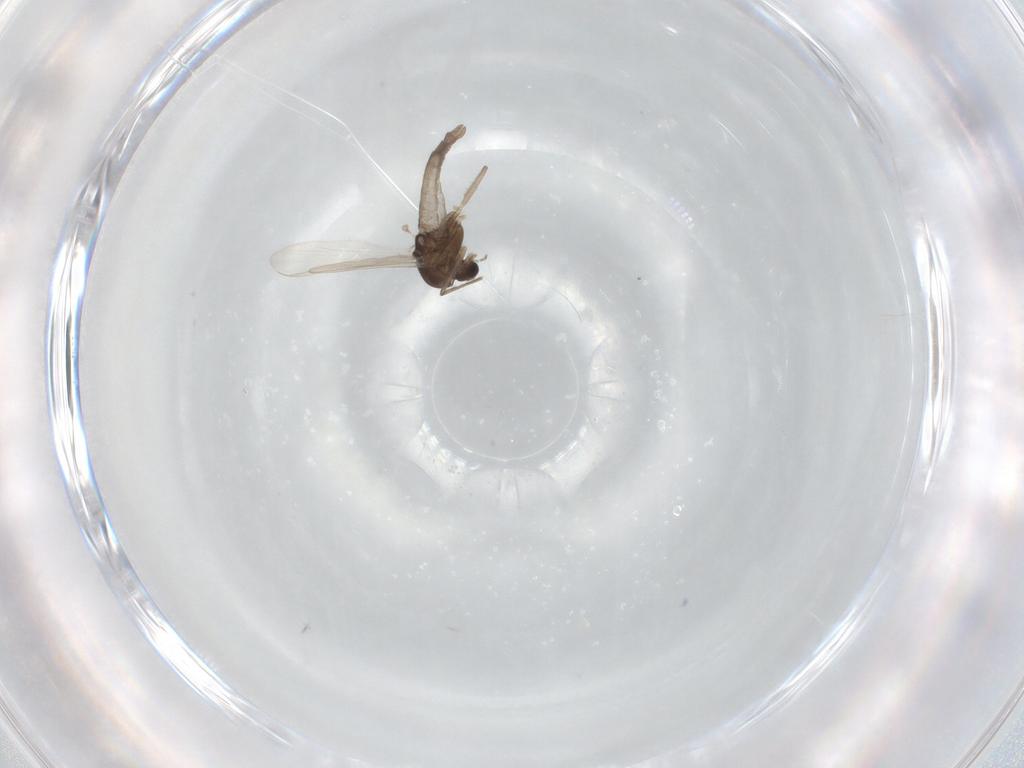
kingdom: Animalia
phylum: Arthropoda
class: Insecta
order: Diptera
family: Chironomidae
